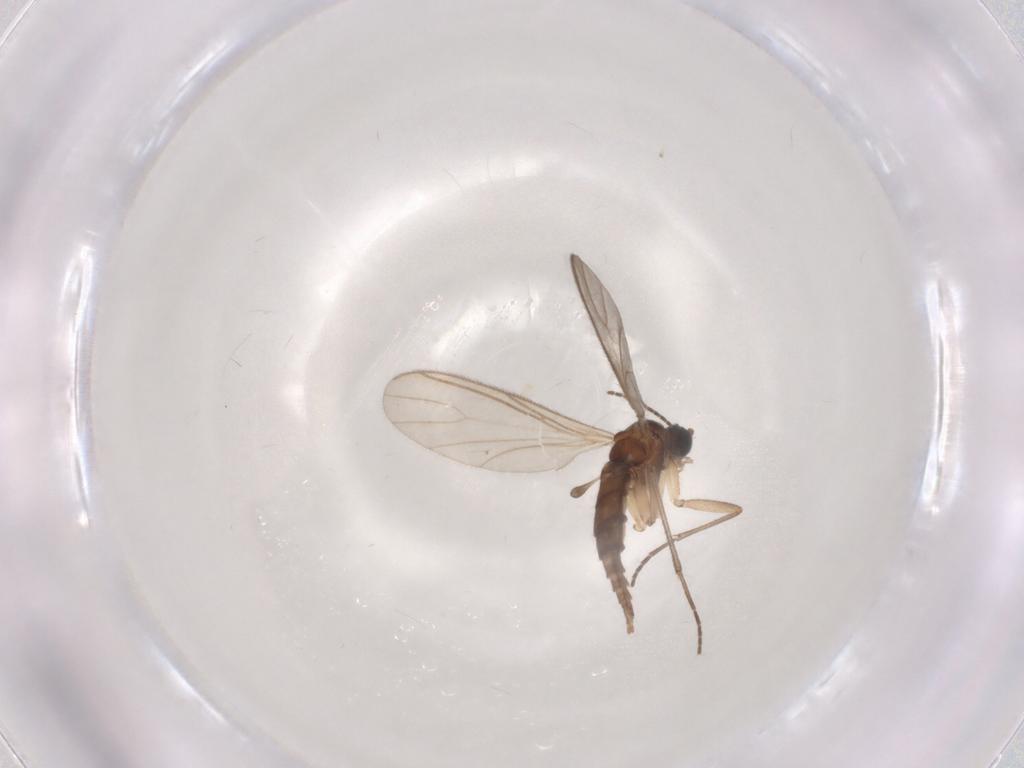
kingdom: Animalia
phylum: Arthropoda
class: Insecta
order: Diptera
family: Sciaridae
